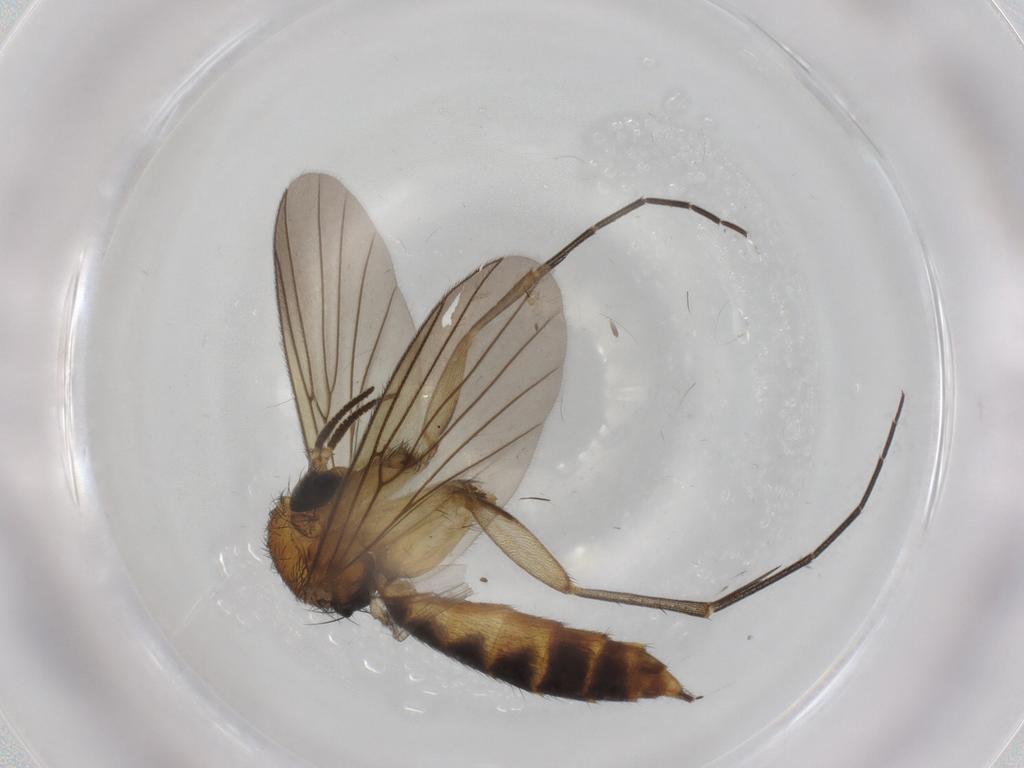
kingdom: Animalia
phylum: Arthropoda
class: Insecta
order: Diptera
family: Mycetophilidae
